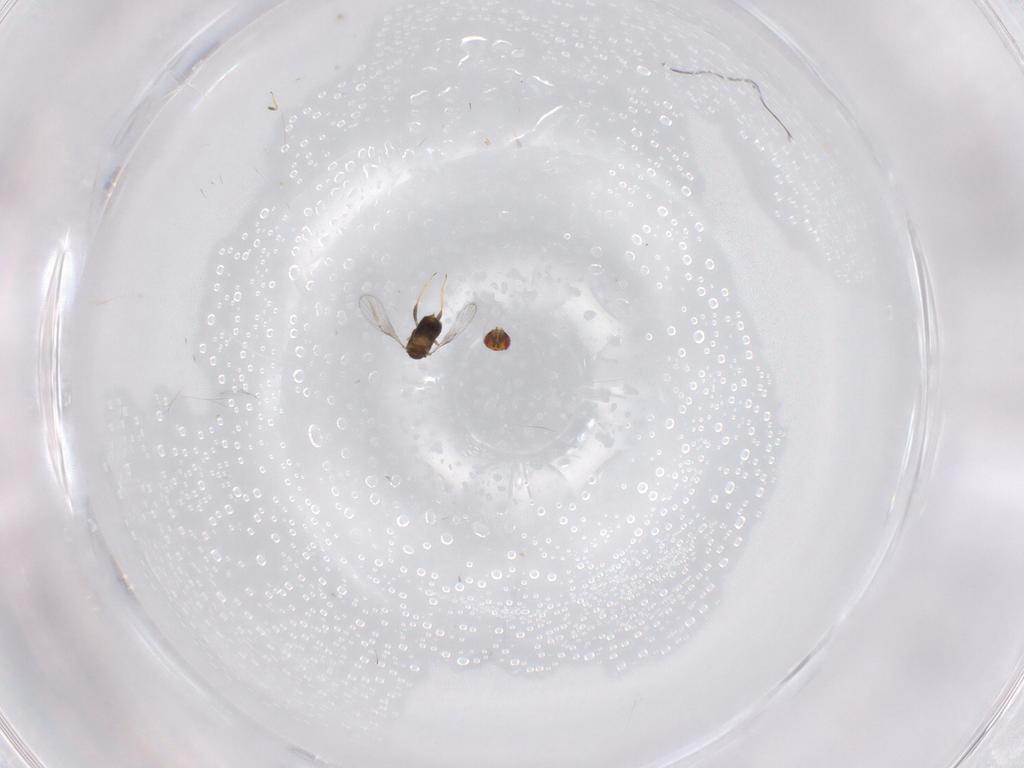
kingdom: Animalia
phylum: Arthropoda
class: Insecta
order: Hymenoptera
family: Trichogrammatidae
